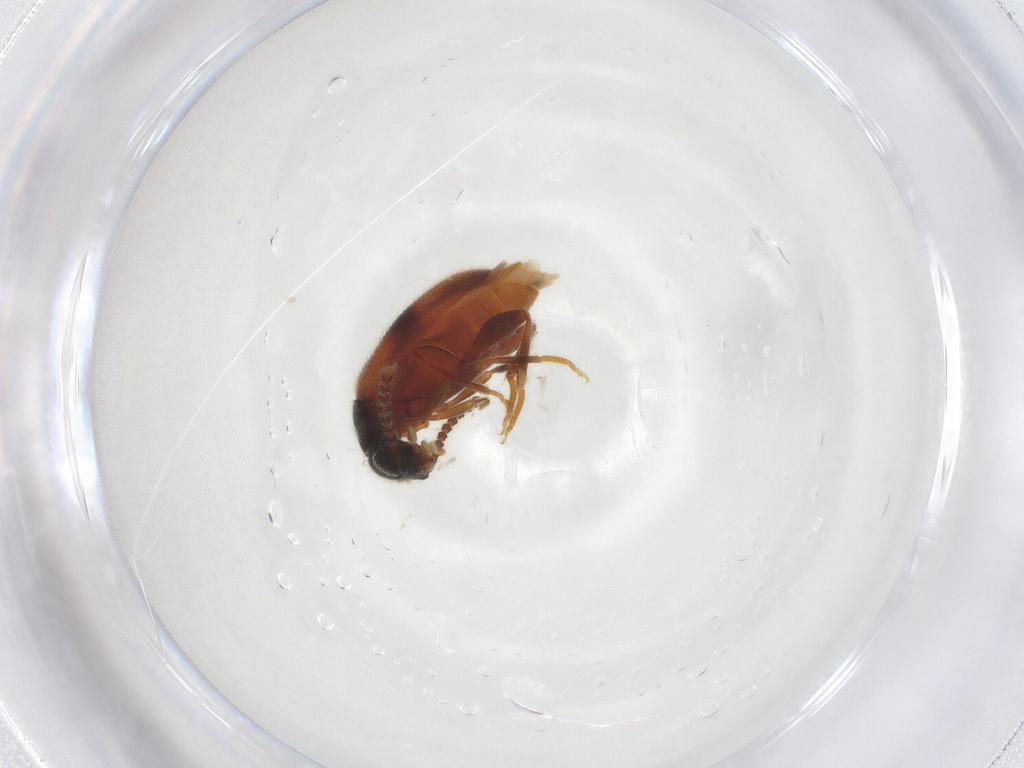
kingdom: Animalia
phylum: Arthropoda
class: Insecta
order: Coleoptera
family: Aderidae
